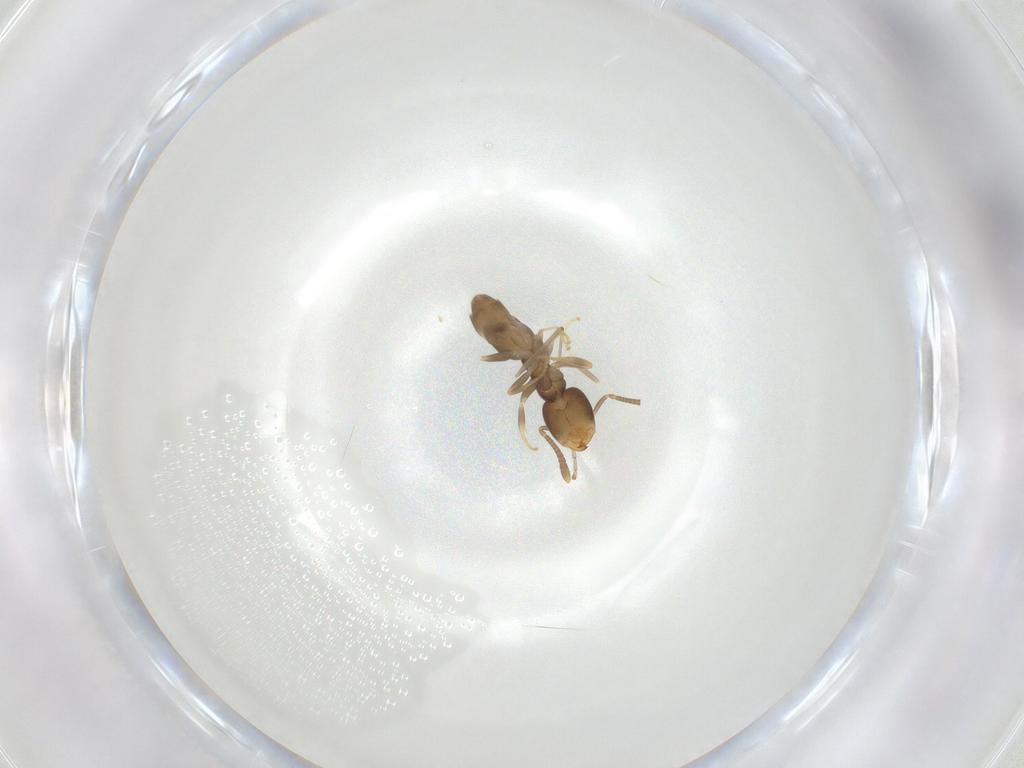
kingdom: Animalia
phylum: Arthropoda
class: Insecta
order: Hymenoptera
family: Formicidae
